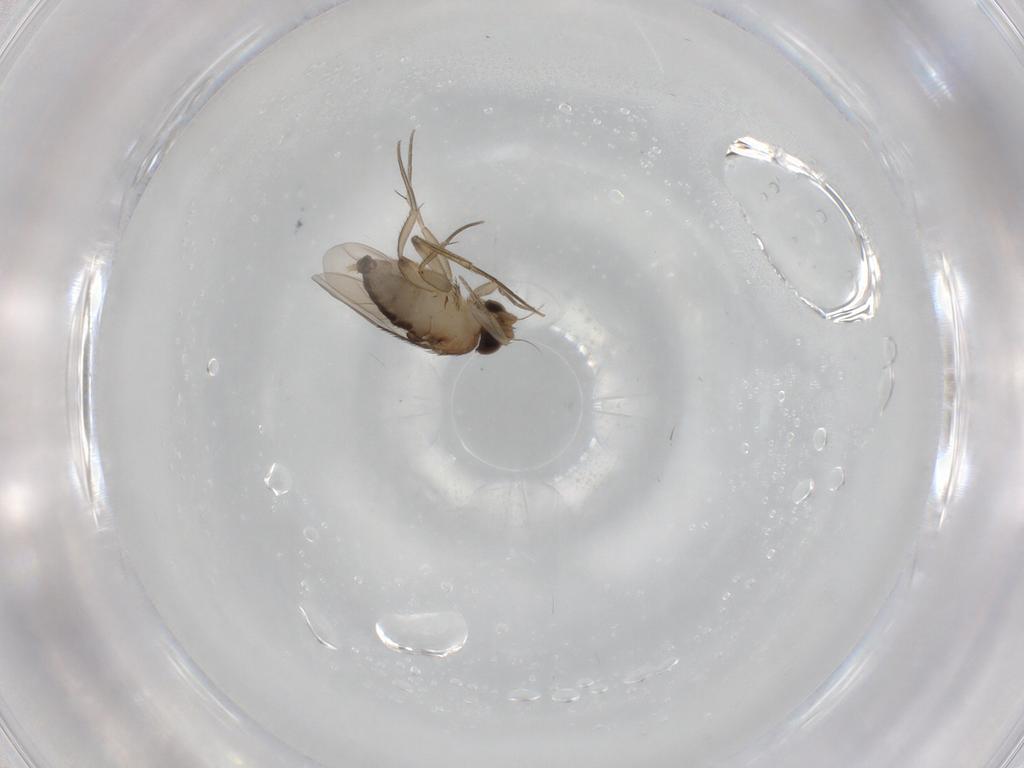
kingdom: Animalia
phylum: Arthropoda
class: Insecta
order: Diptera
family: Phoridae
